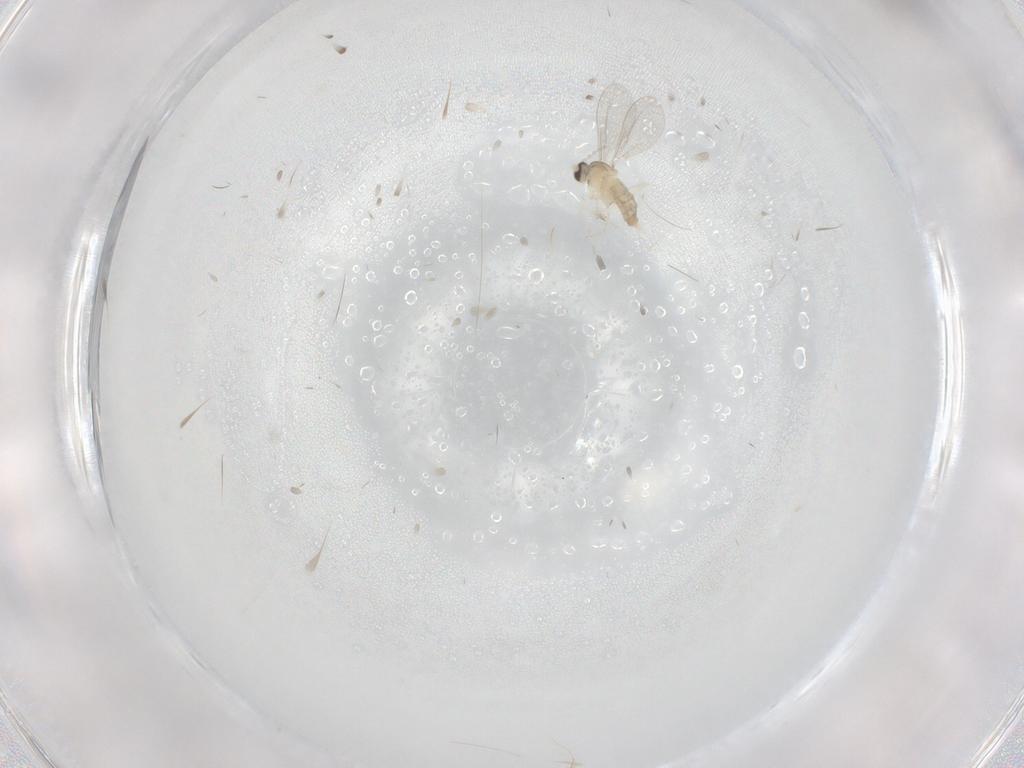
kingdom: Animalia
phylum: Arthropoda
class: Insecta
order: Diptera
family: Cecidomyiidae
